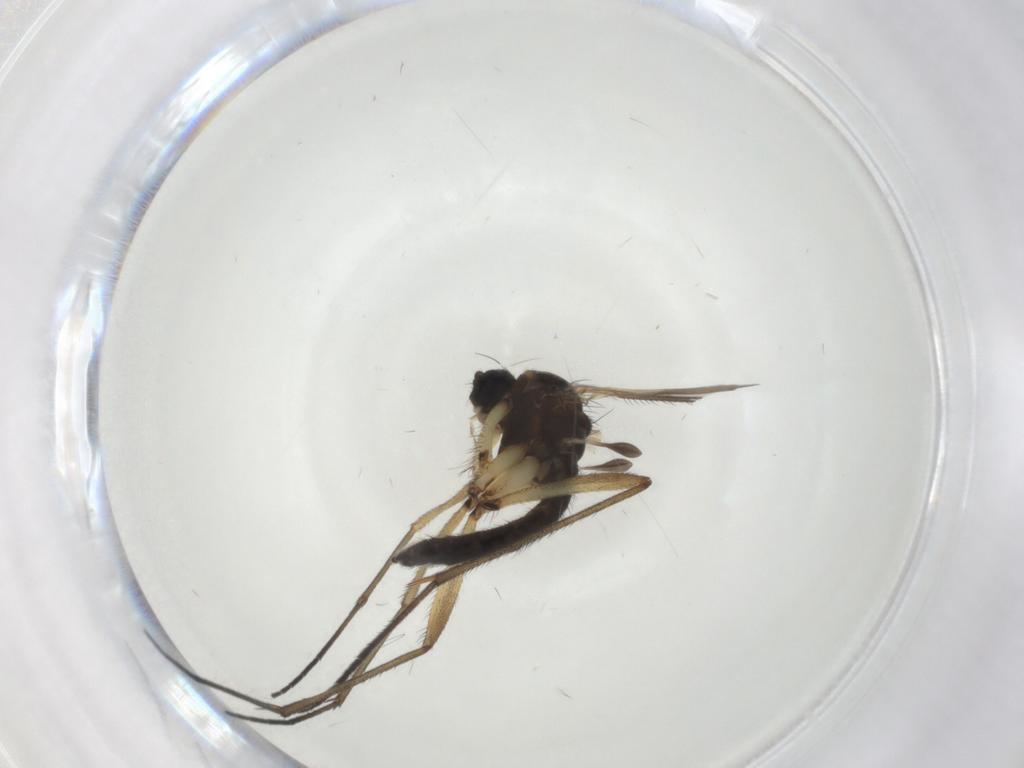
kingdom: Animalia
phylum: Arthropoda
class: Insecta
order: Diptera
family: Sciaridae
